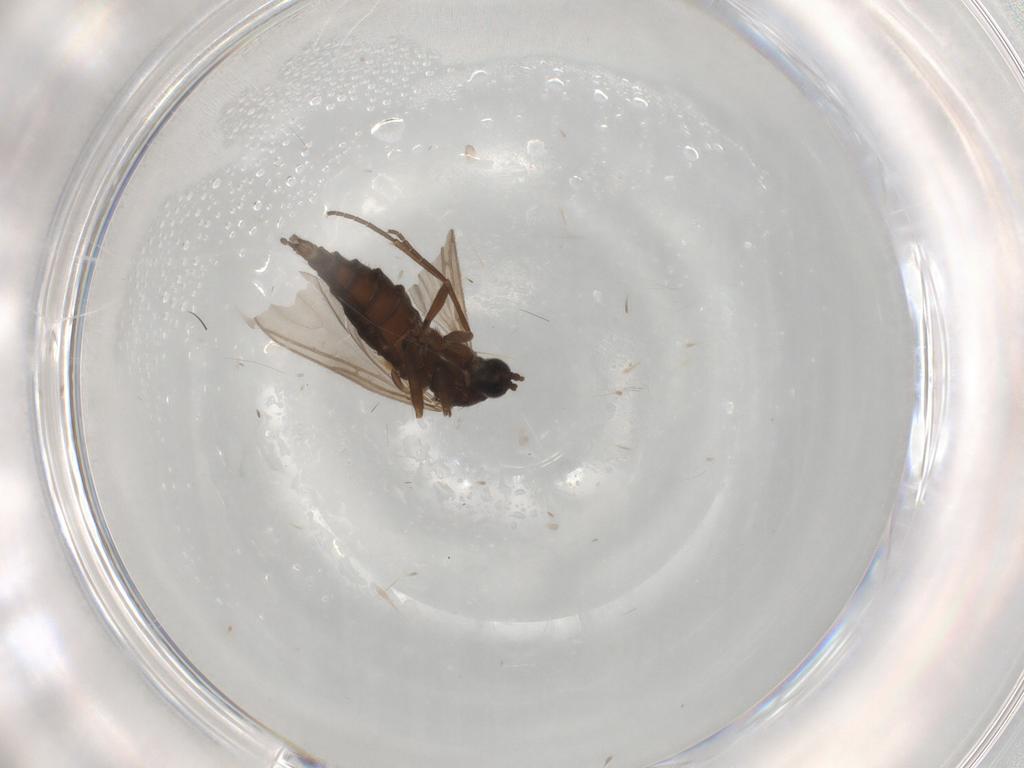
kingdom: Animalia
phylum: Arthropoda
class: Insecta
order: Diptera
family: Sciaridae
